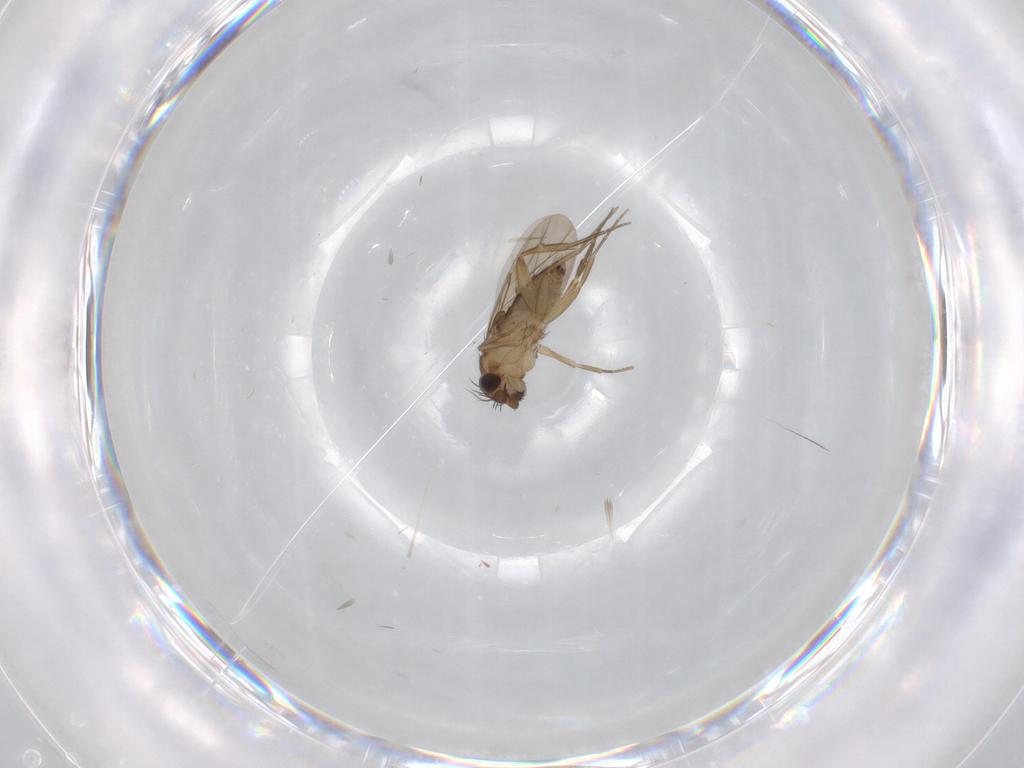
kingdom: Animalia
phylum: Arthropoda
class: Insecta
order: Diptera
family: Phoridae
